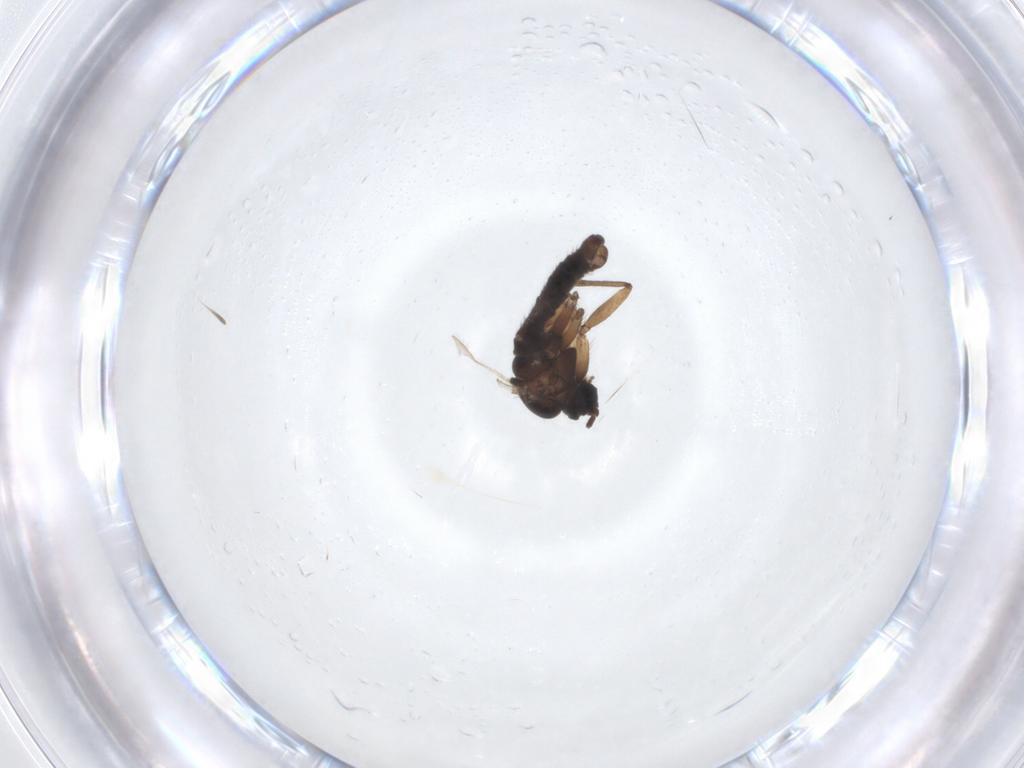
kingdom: Animalia
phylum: Arthropoda
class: Insecta
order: Diptera
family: Sciaridae
